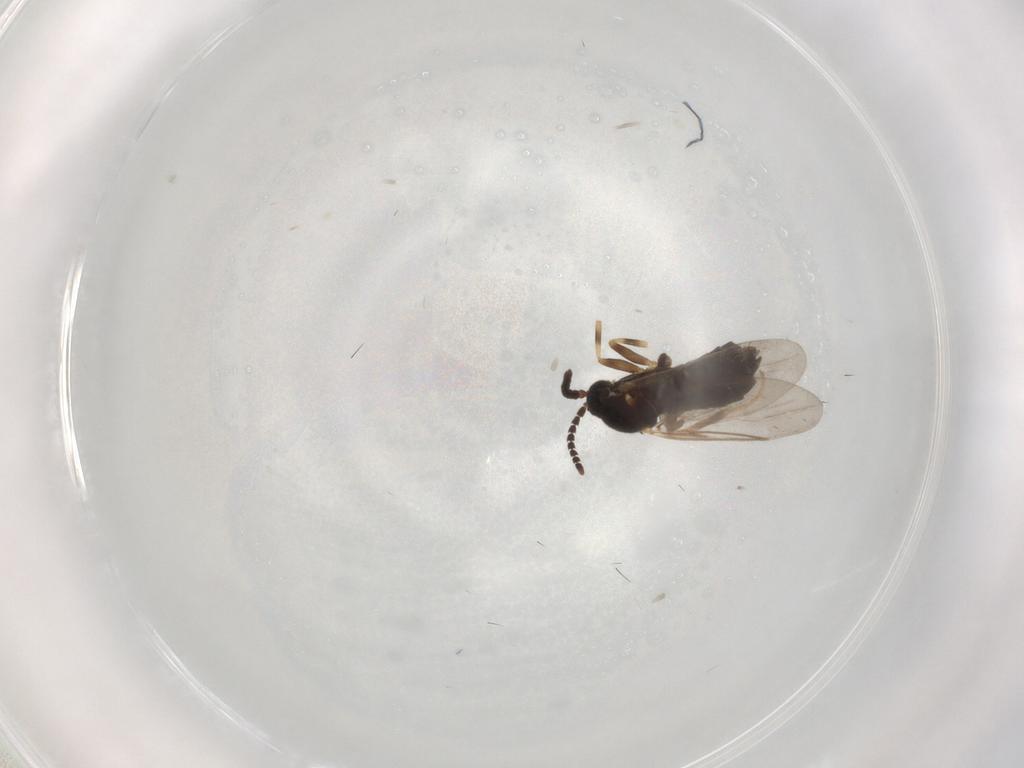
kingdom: Animalia
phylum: Arthropoda
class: Insecta
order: Diptera
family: Scatopsidae
